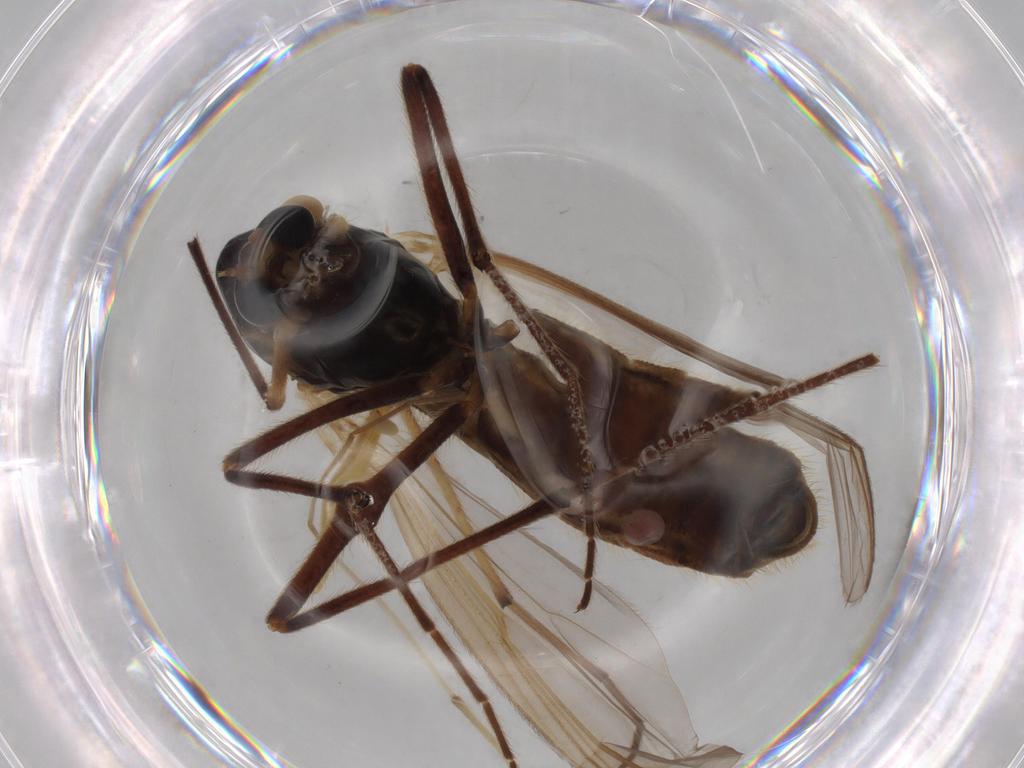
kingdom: Animalia
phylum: Arthropoda
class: Insecta
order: Diptera
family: Chironomidae
